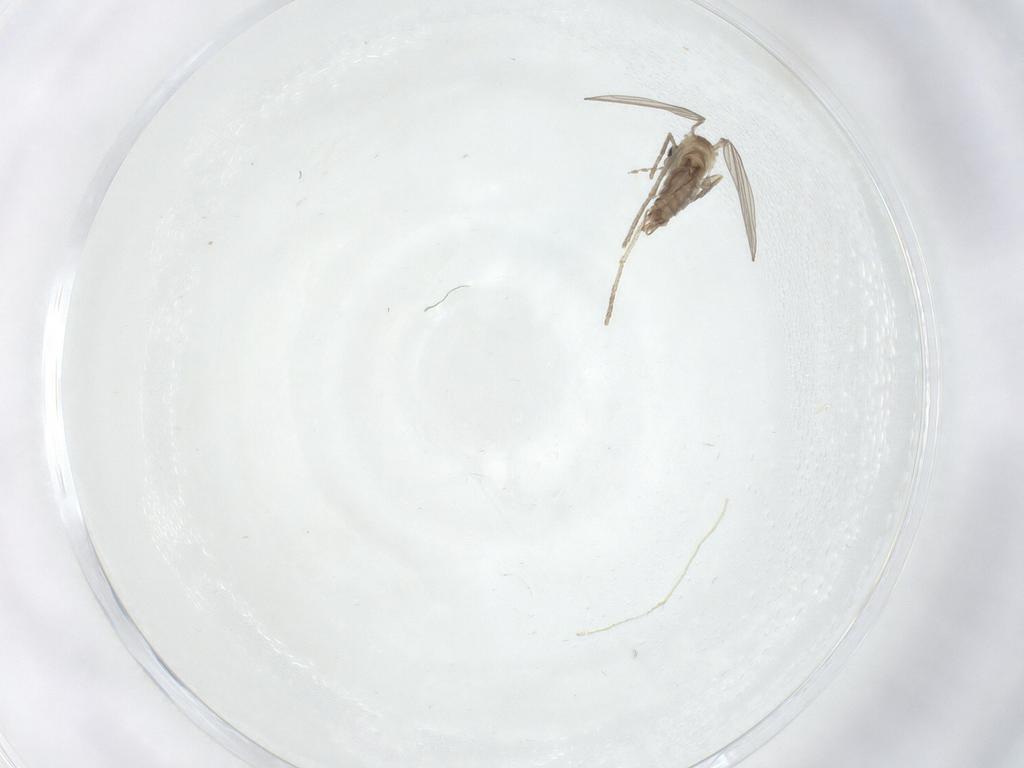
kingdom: Animalia
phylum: Arthropoda
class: Insecta
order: Diptera
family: Psychodidae
